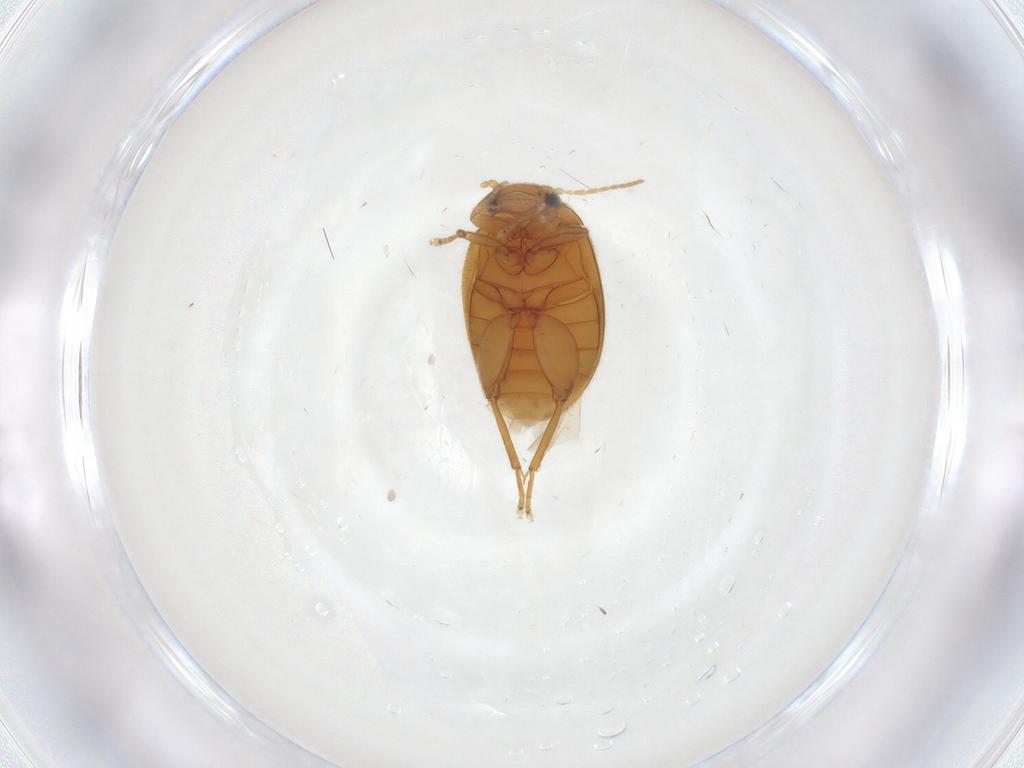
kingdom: Animalia
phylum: Arthropoda
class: Insecta
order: Coleoptera
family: Scirtidae
